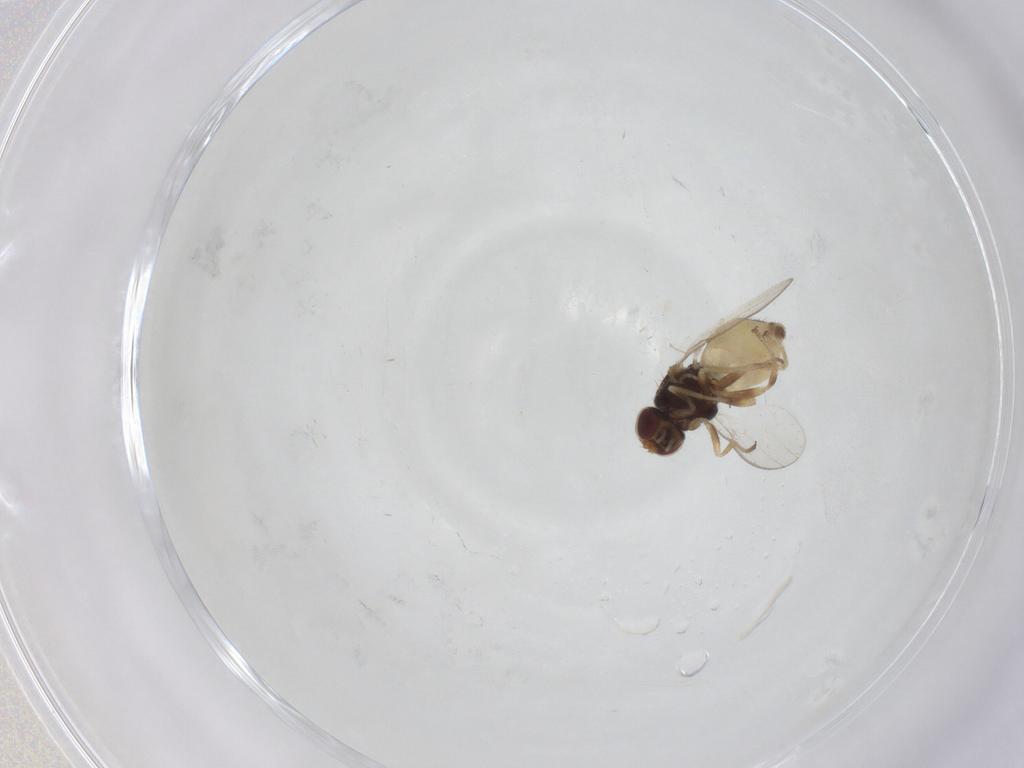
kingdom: Animalia
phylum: Arthropoda
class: Insecta
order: Diptera
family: Chloropidae
